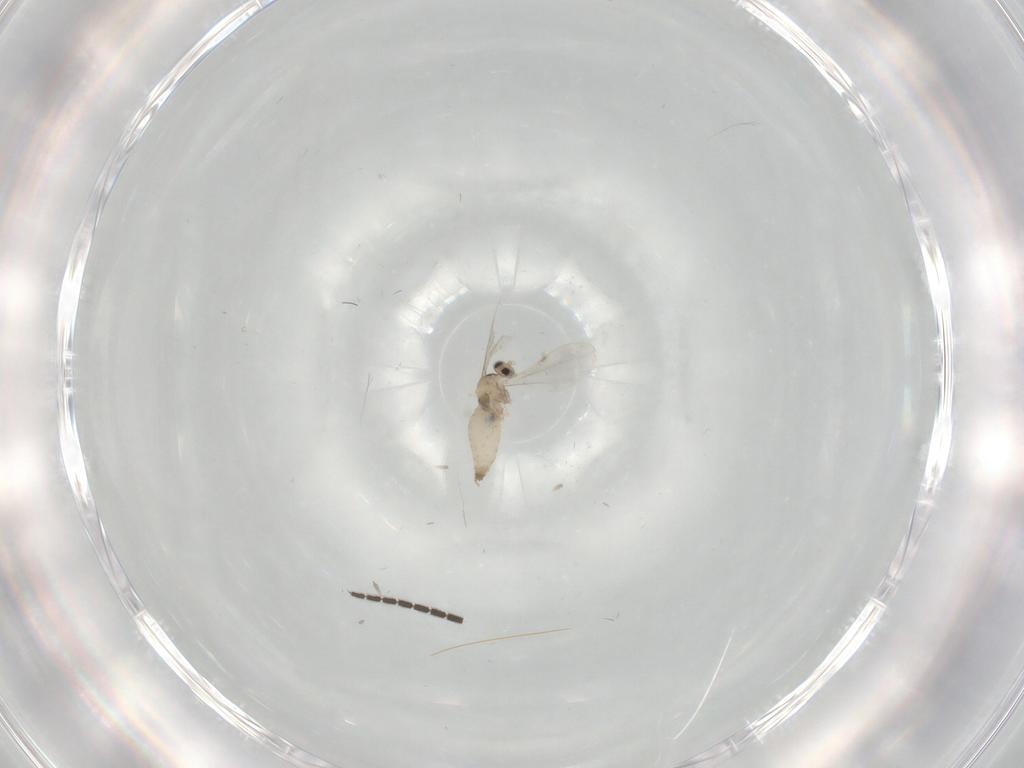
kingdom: Animalia
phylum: Arthropoda
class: Insecta
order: Diptera
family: Cecidomyiidae
